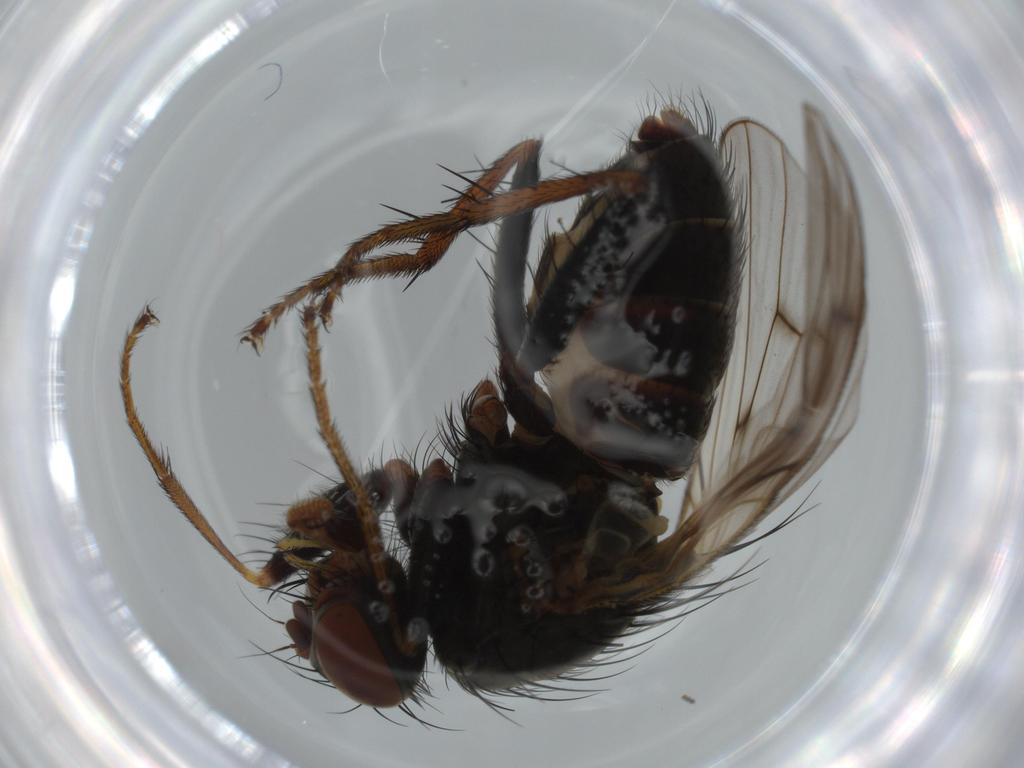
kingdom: Animalia
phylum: Arthropoda
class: Insecta
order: Diptera
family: Muscidae
